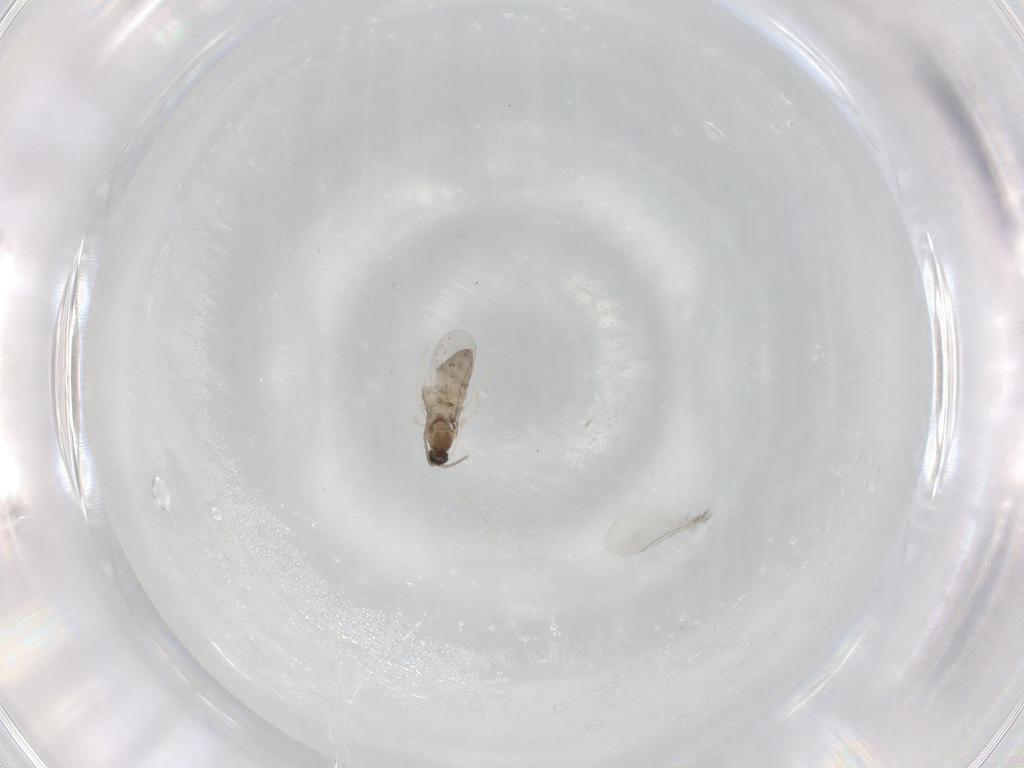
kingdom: Animalia
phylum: Arthropoda
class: Insecta
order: Diptera
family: Cecidomyiidae
